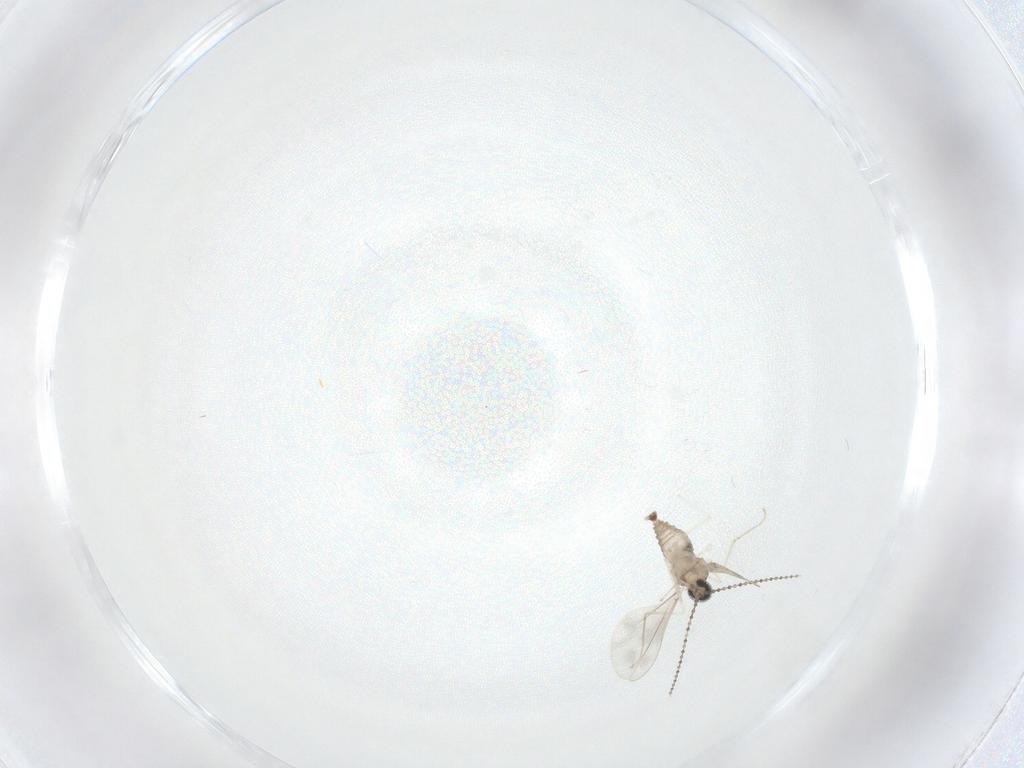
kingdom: Animalia
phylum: Arthropoda
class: Insecta
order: Diptera
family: Cecidomyiidae
